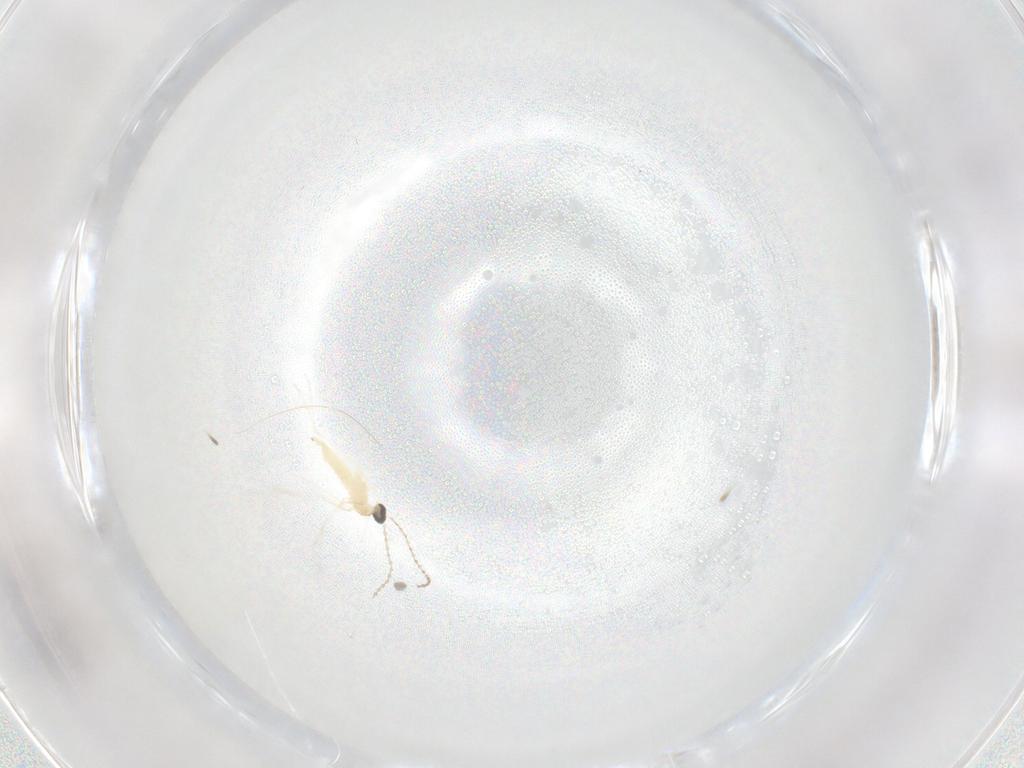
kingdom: Animalia
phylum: Arthropoda
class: Insecta
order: Diptera
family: Cecidomyiidae
